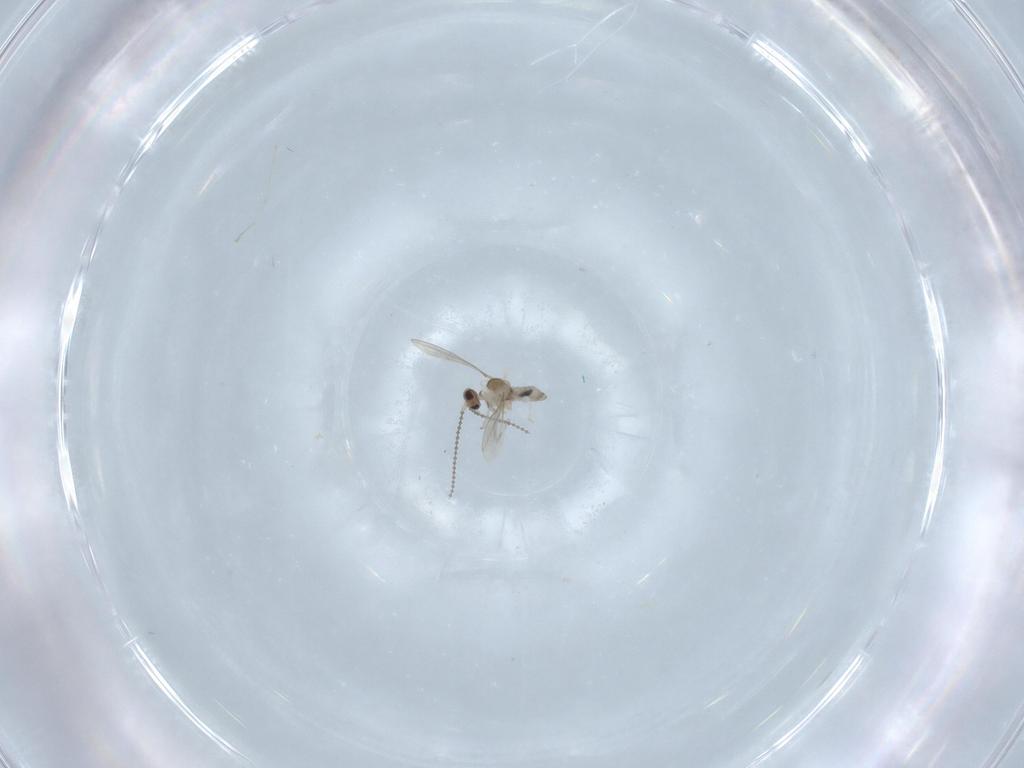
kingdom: Animalia
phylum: Arthropoda
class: Insecta
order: Diptera
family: Cecidomyiidae
